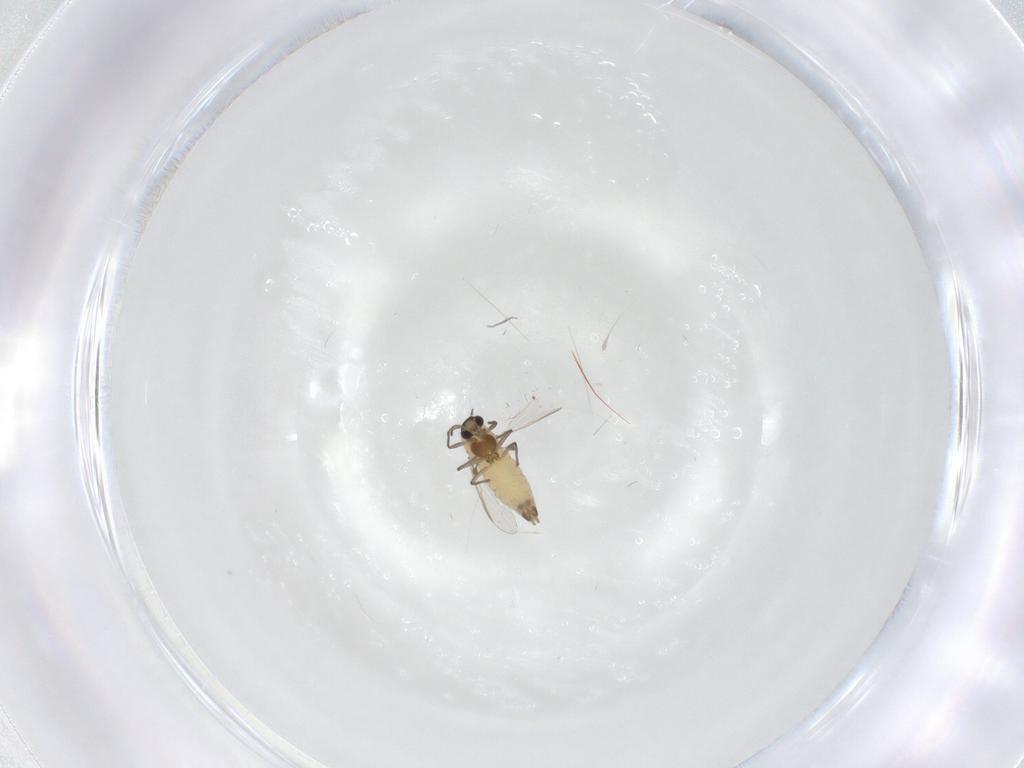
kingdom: Animalia
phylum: Arthropoda
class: Insecta
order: Diptera
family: Chironomidae
